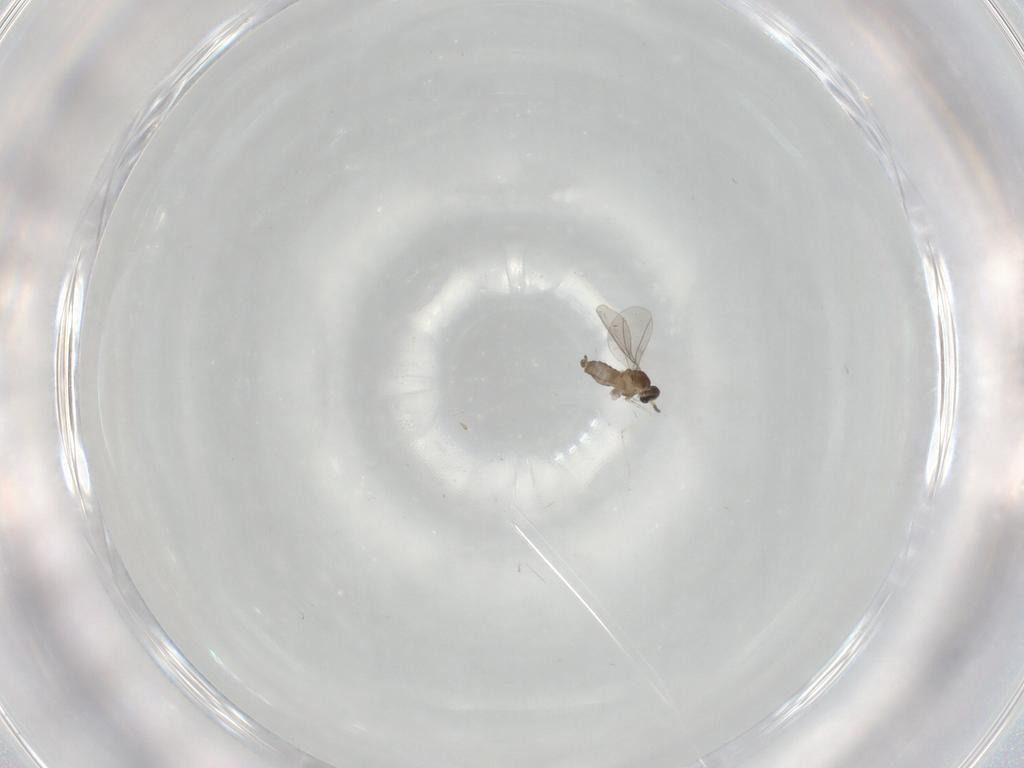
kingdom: Animalia
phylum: Arthropoda
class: Insecta
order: Diptera
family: Cecidomyiidae
